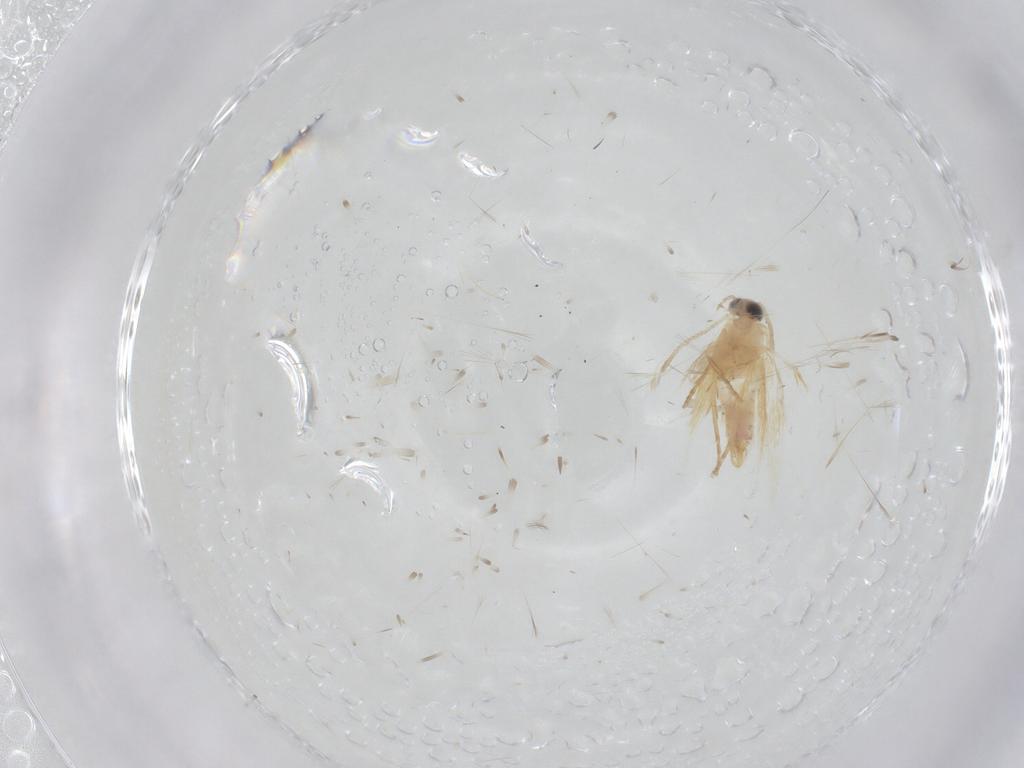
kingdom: Animalia
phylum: Arthropoda
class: Insecta
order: Lepidoptera
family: Nepticulidae
